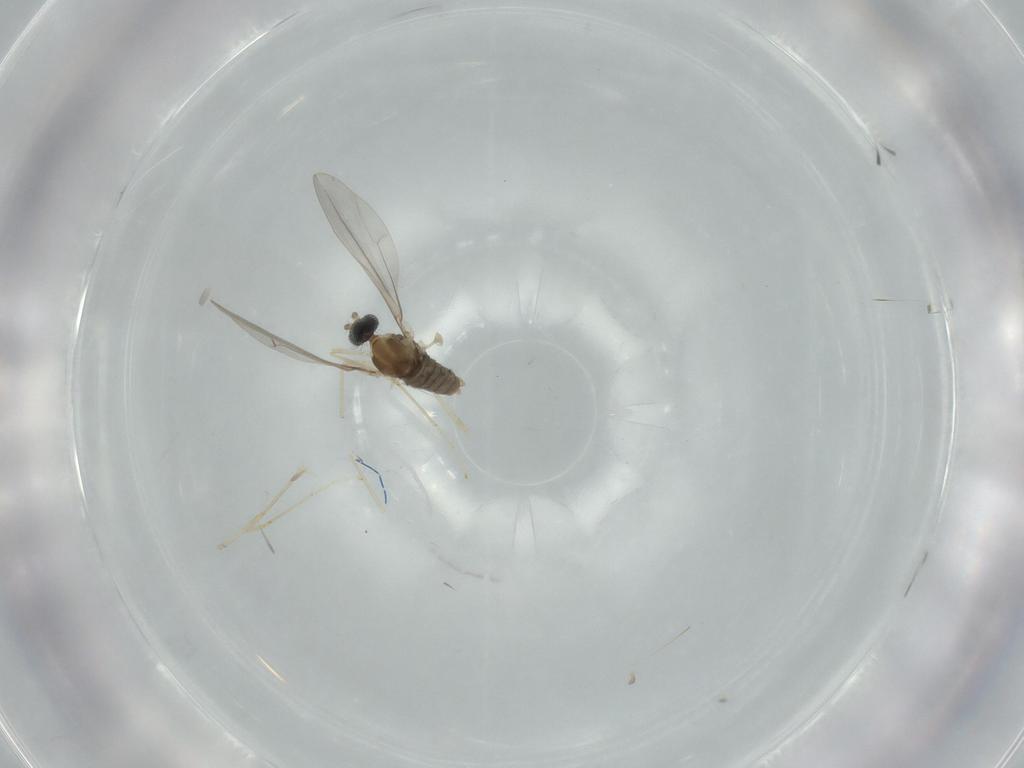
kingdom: Animalia
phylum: Arthropoda
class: Insecta
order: Diptera
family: Cecidomyiidae
